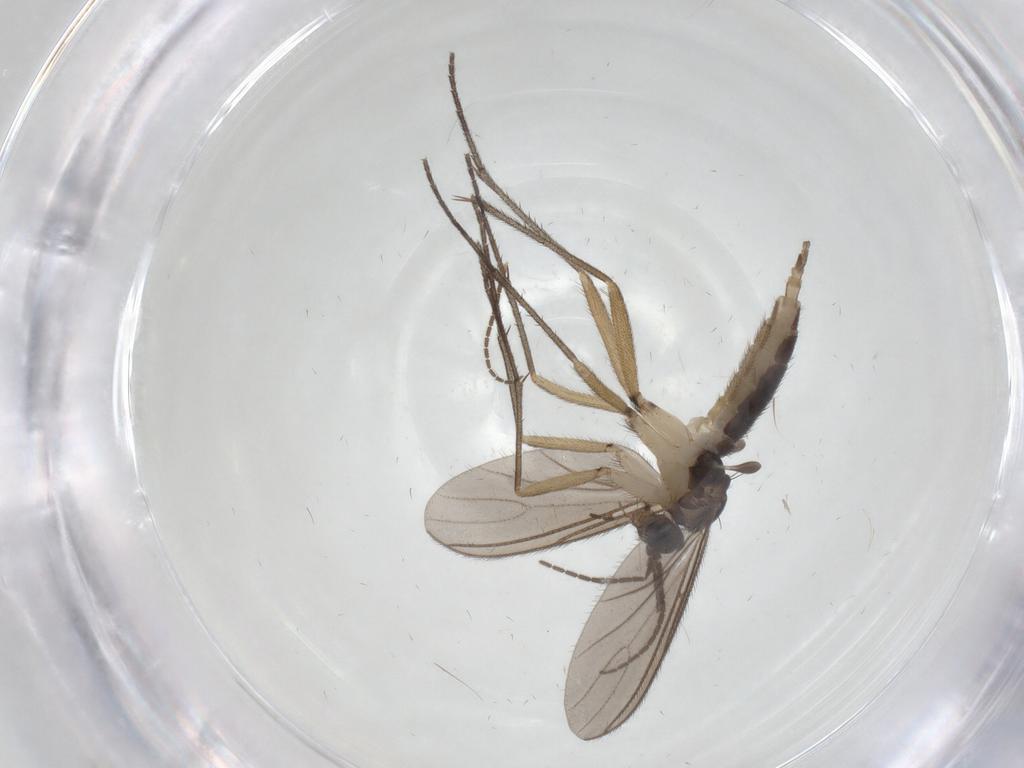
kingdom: Animalia
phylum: Arthropoda
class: Insecta
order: Diptera
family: Sciaridae
